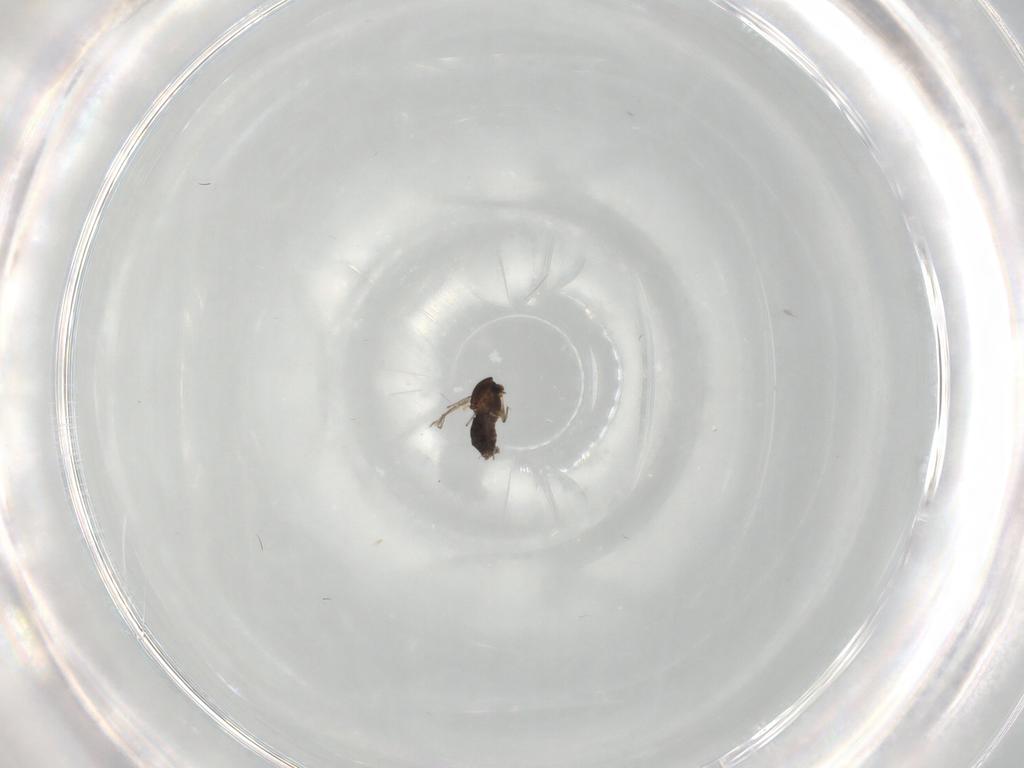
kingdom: Animalia
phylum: Arthropoda
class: Insecta
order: Diptera
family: Chironomidae
